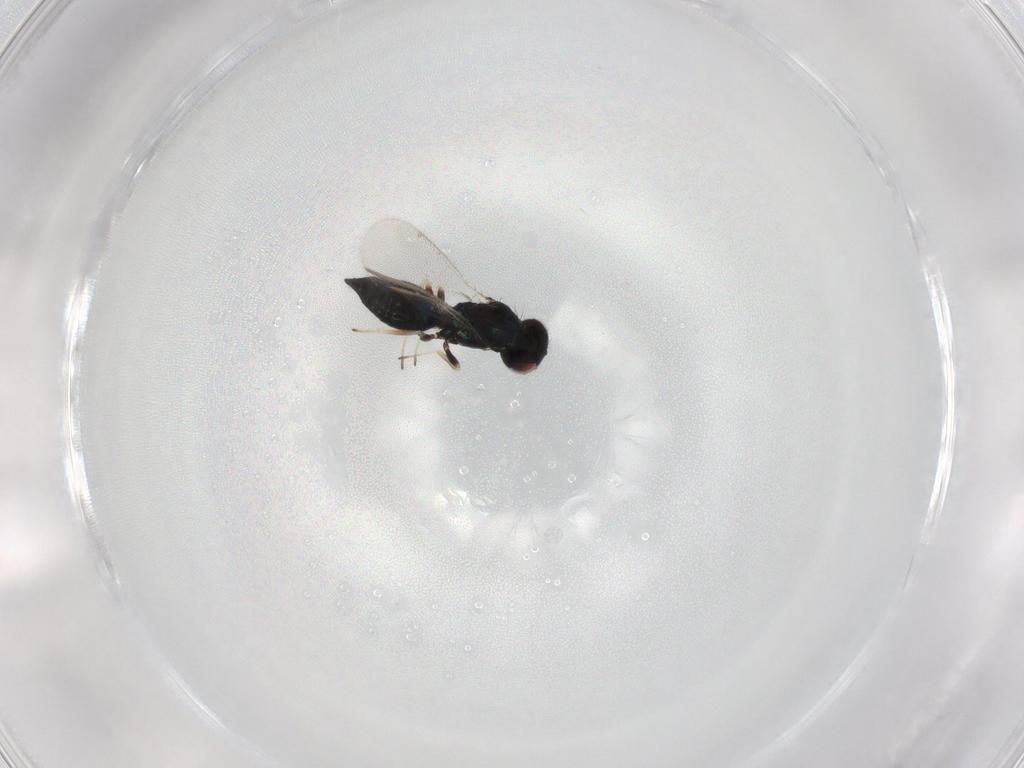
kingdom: Animalia
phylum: Arthropoda
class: Insecta
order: Hymenoptera
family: Eulophidae
